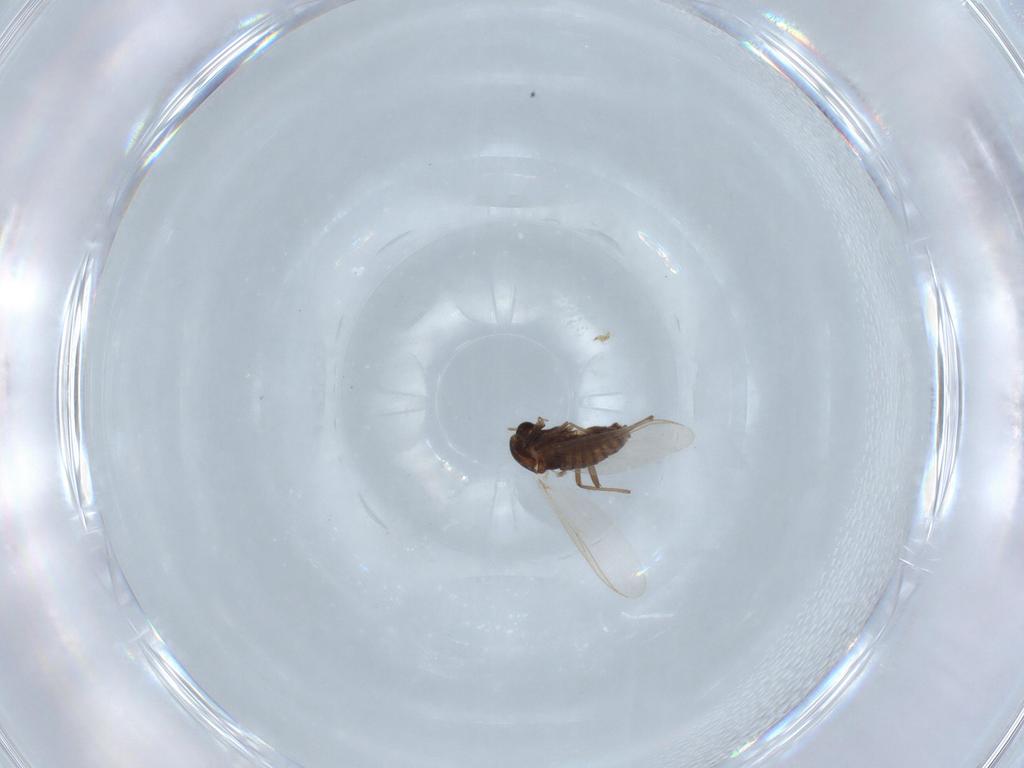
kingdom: Animalia
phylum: Arthropoda
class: Insecta
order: Diptera
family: Chironomidae
